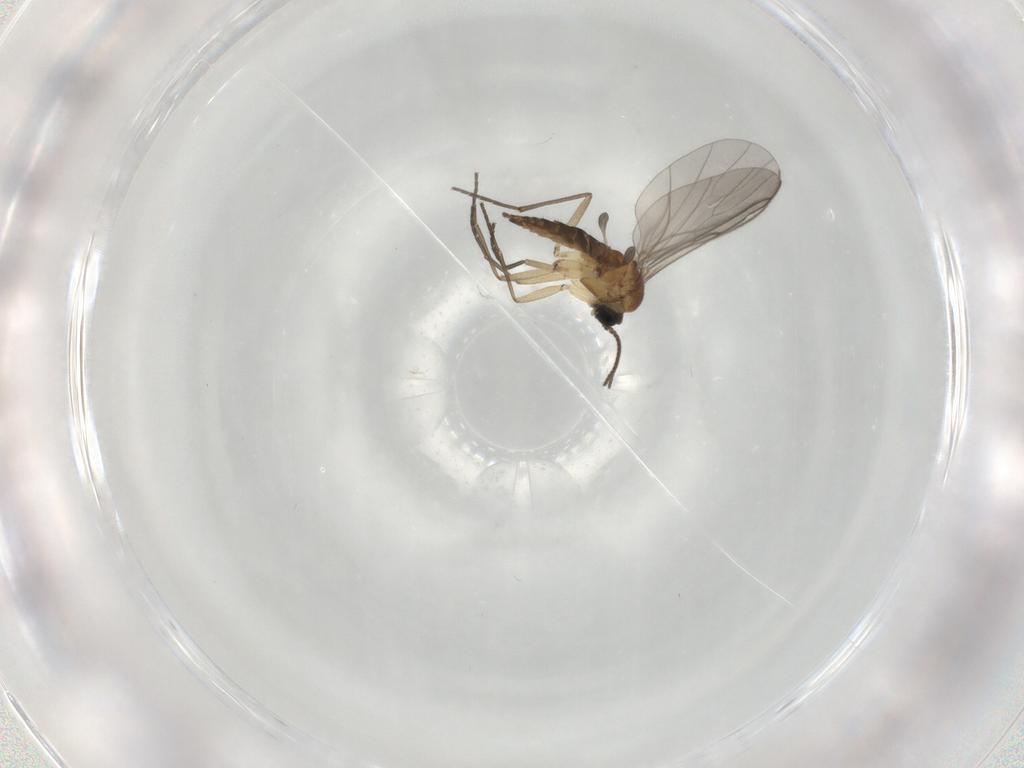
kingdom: Animalia
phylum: Arthropoda
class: Insecta
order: Diptera
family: Sciaridae
